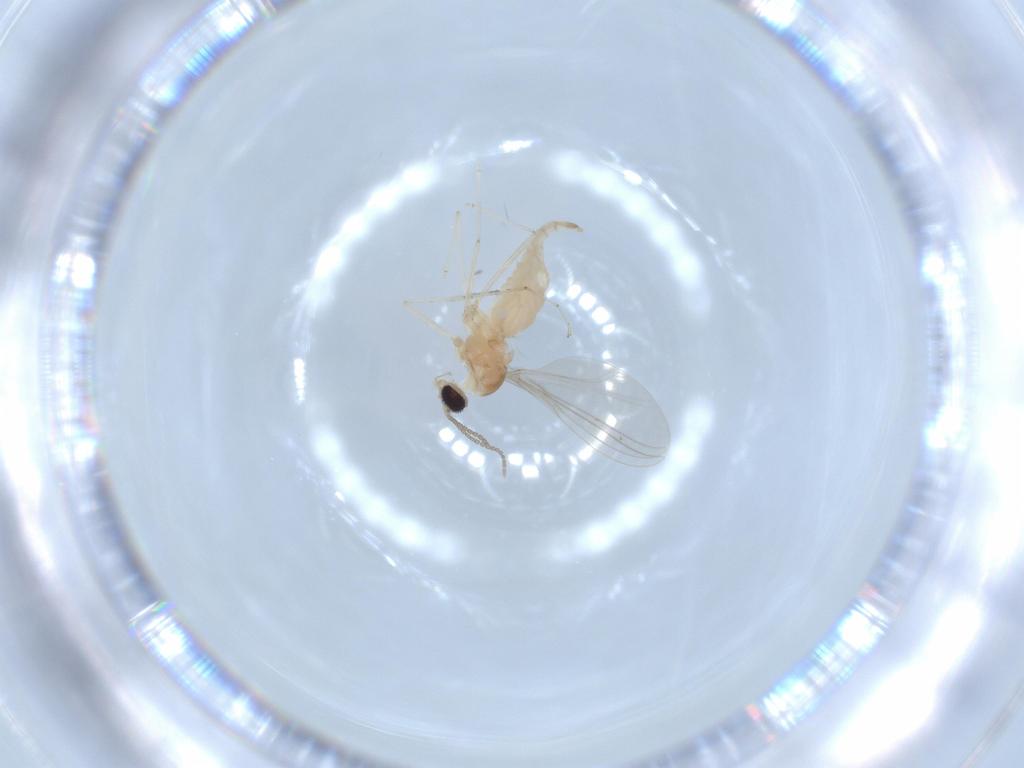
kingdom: Animalia
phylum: Arthropoda
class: Insecta
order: Diptera
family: Cecidomyiidae
